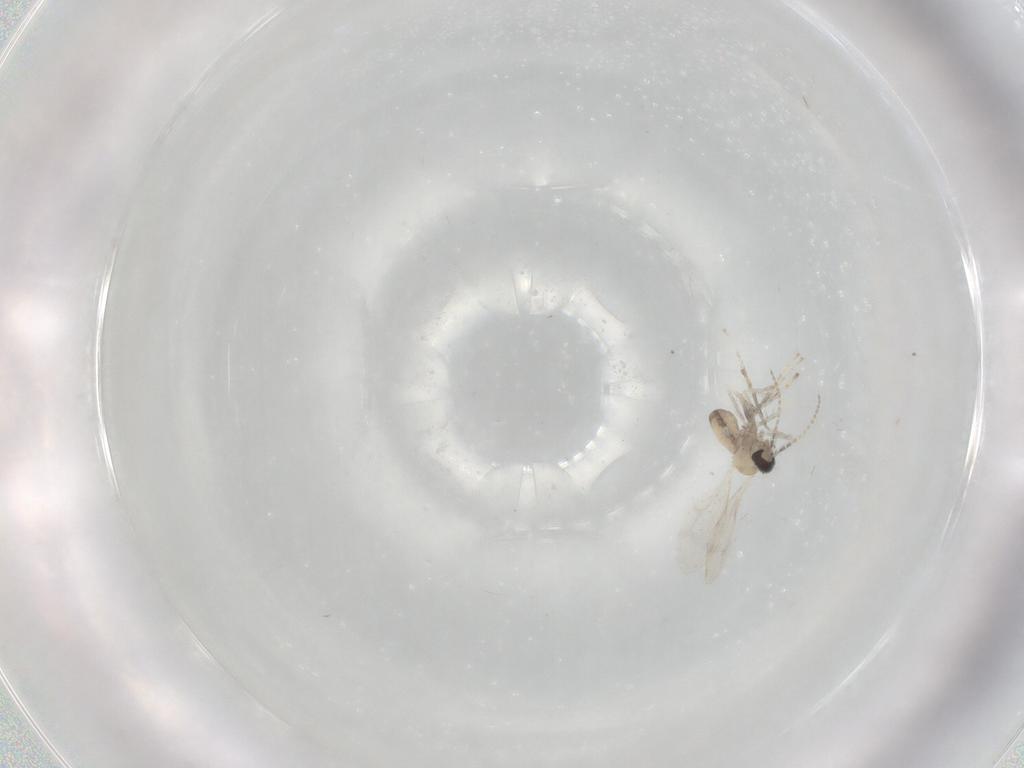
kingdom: Animalia
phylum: Arthropoda
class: Insecta
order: Diptera
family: Cecidomyiidae
